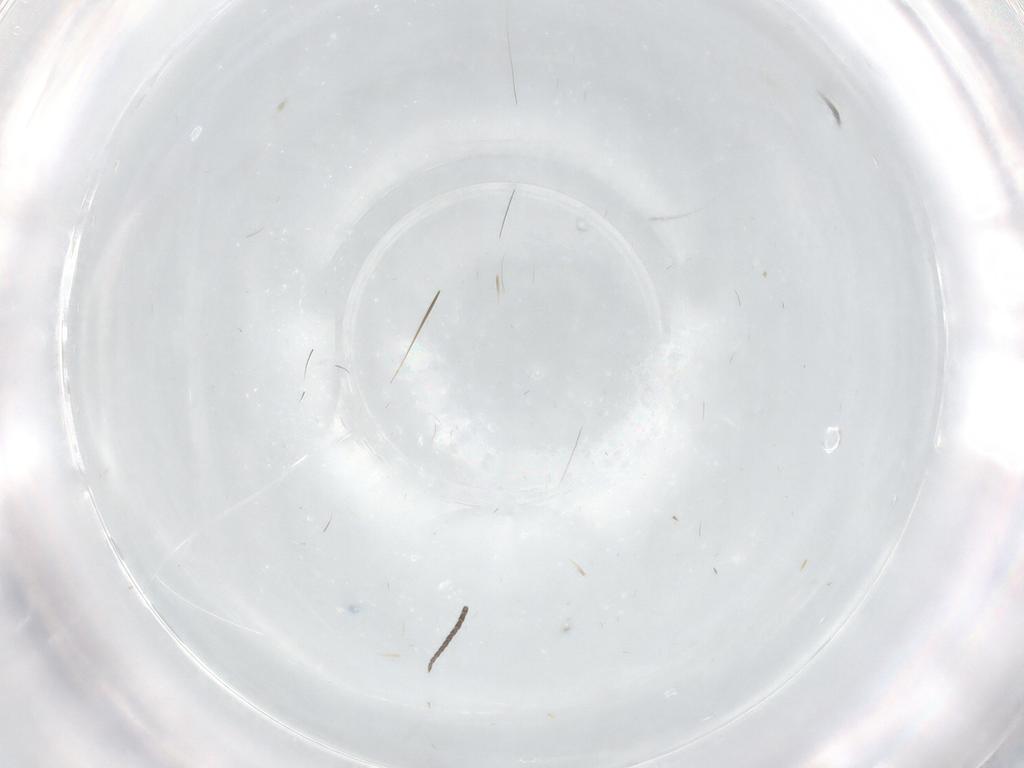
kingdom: Animalia
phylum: Arthropoda
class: Insecta
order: Diptera
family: Sciaridae
